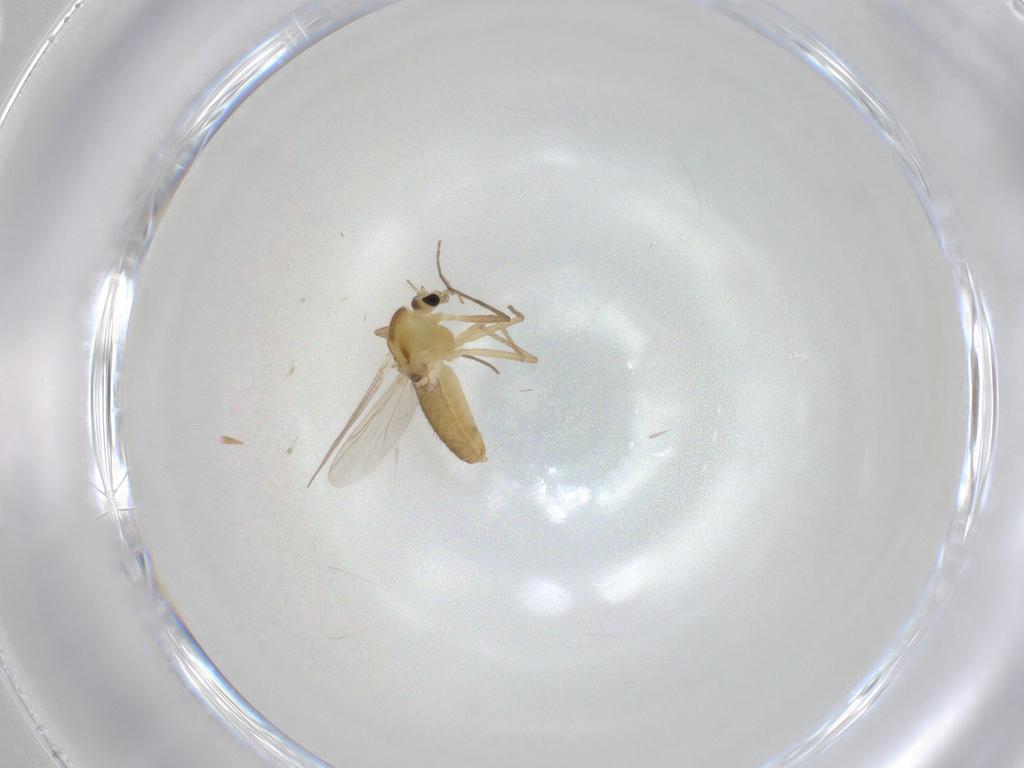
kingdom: Animalia
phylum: Arthropoda
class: Insecta
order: Diptera
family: Chironomidae
